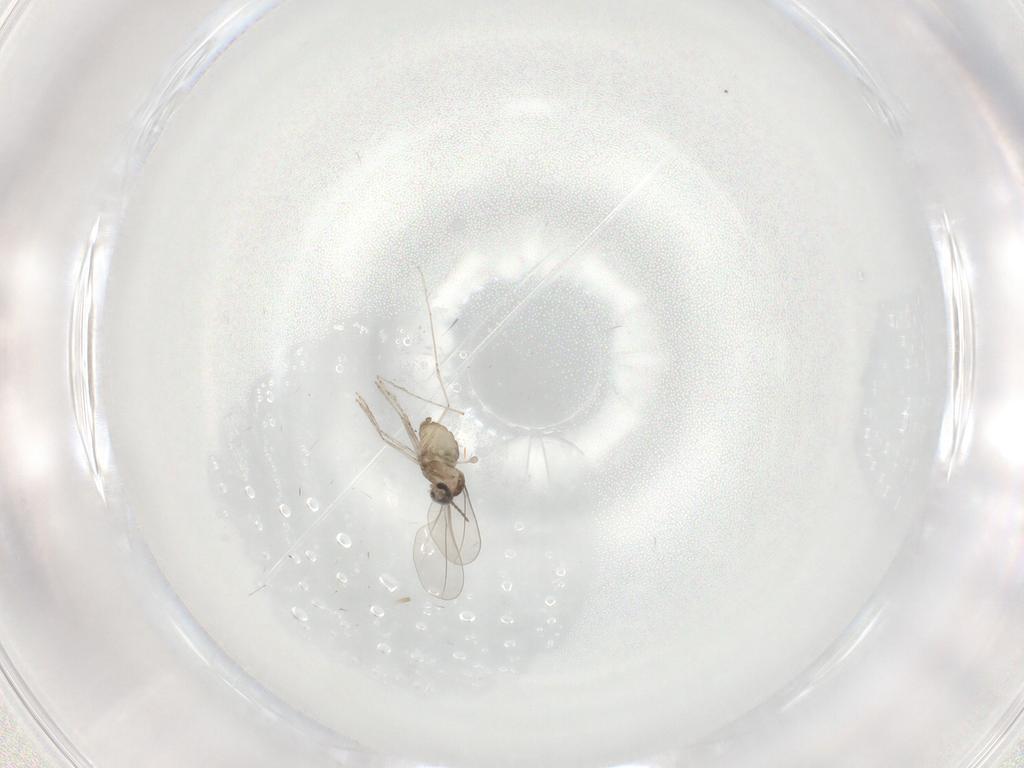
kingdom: Animalia
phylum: Arthropoda
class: Insecta
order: Diptera
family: Cecidomyiidae
